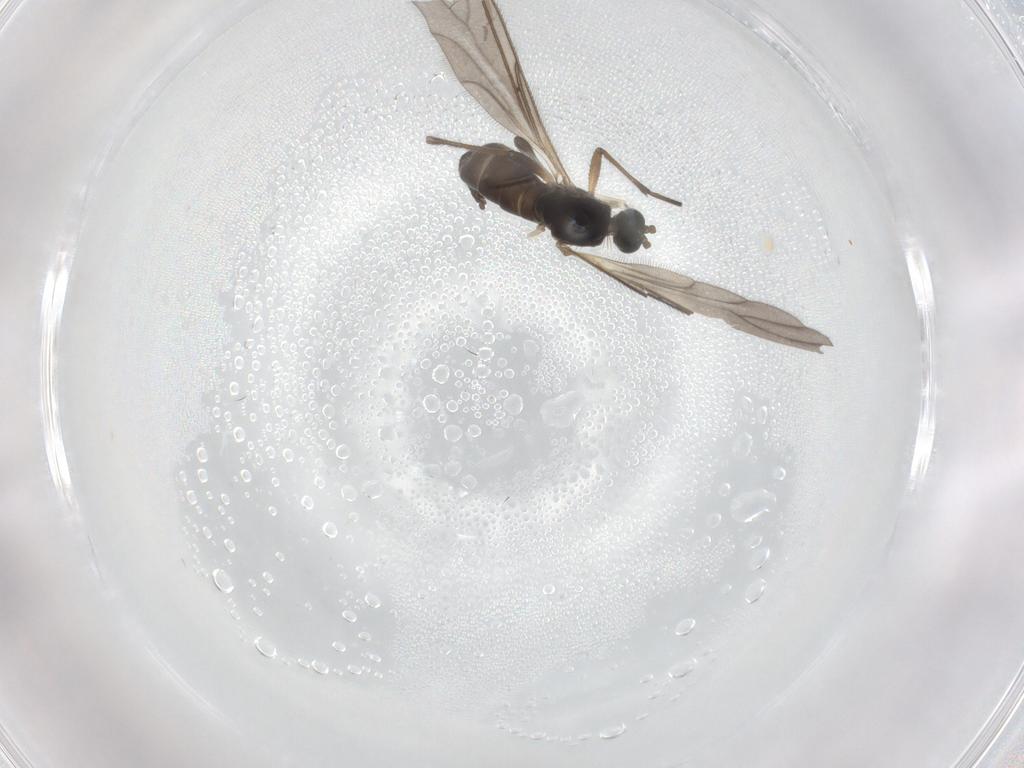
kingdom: Animalia
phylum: Arthropoda
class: Insecta
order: Diptera
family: Sciaridae
